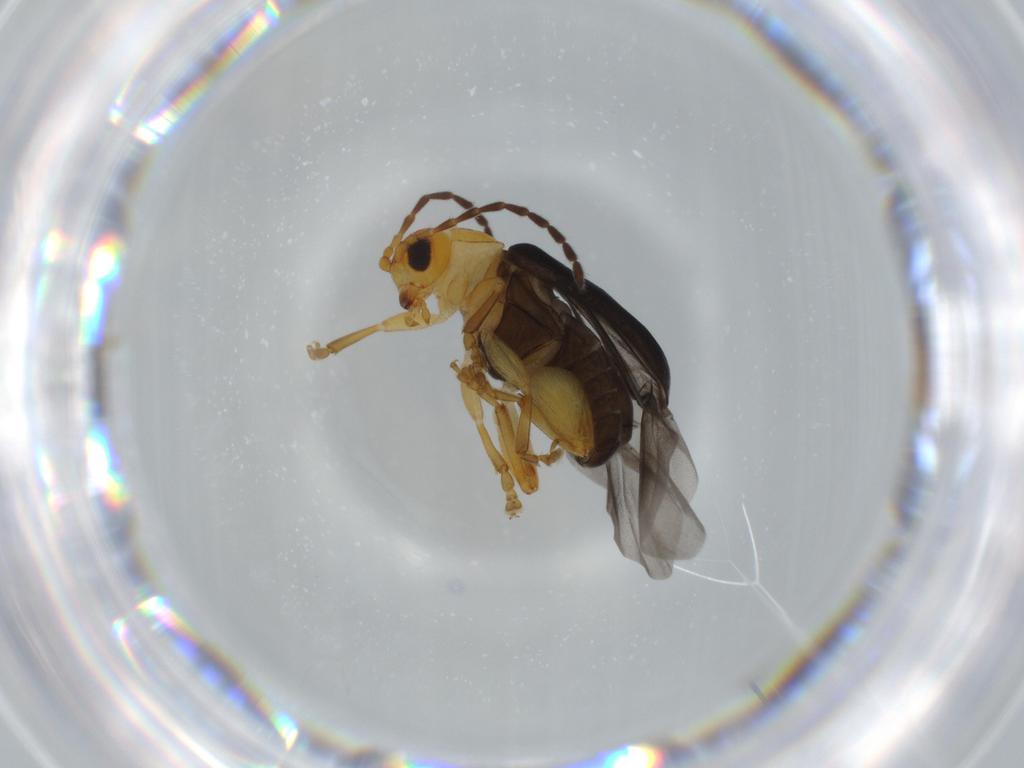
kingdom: Animalia
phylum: Arthropoda
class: Insecta
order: Coleoptera
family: Chrysomelidae
